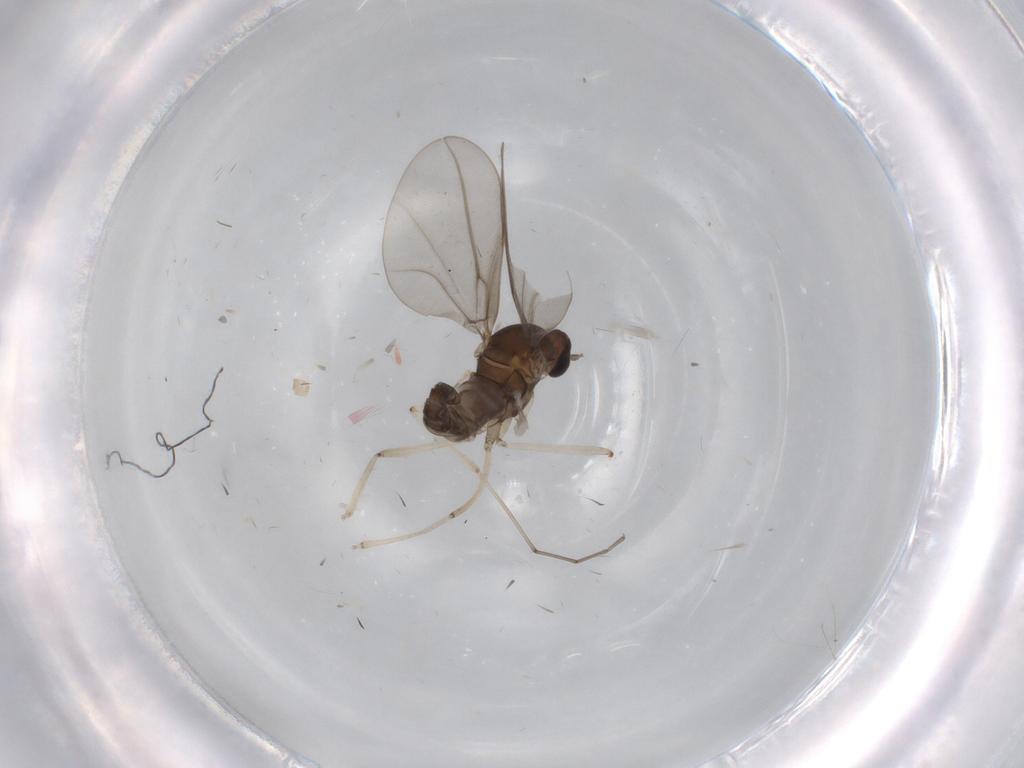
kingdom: Animalia
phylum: Arthropoda
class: Insecta
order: Diptera
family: Cecidomyiidae
